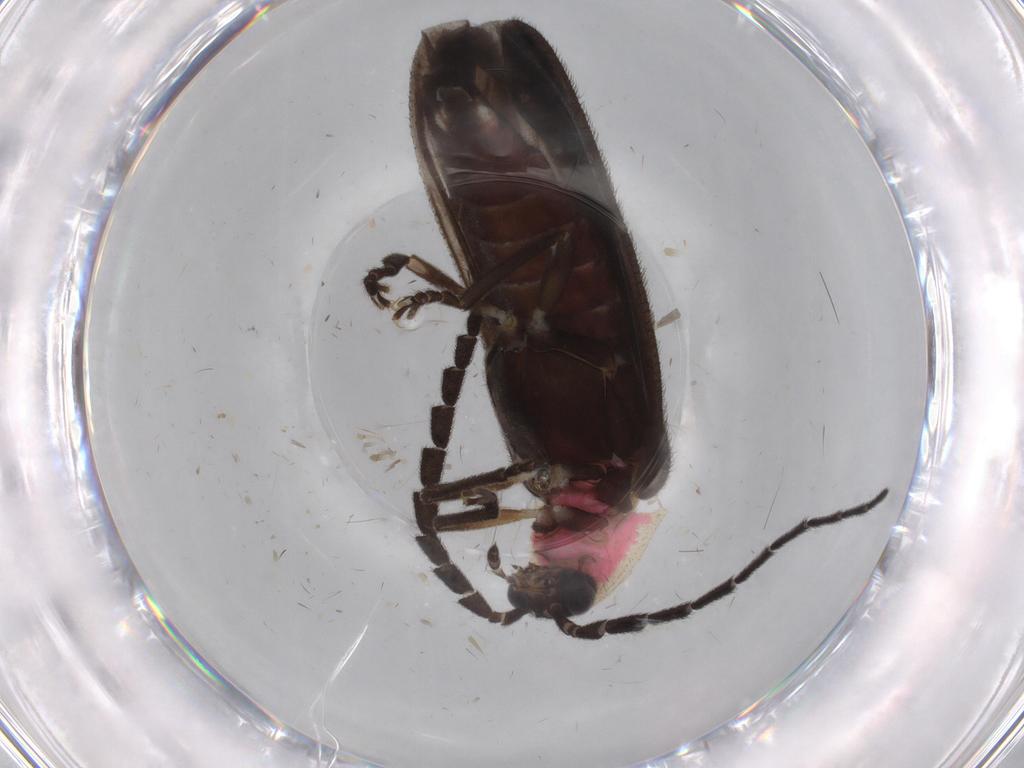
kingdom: Animalia
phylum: Arthropoda
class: Insecta
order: Coleoptera
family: Lampyridae
